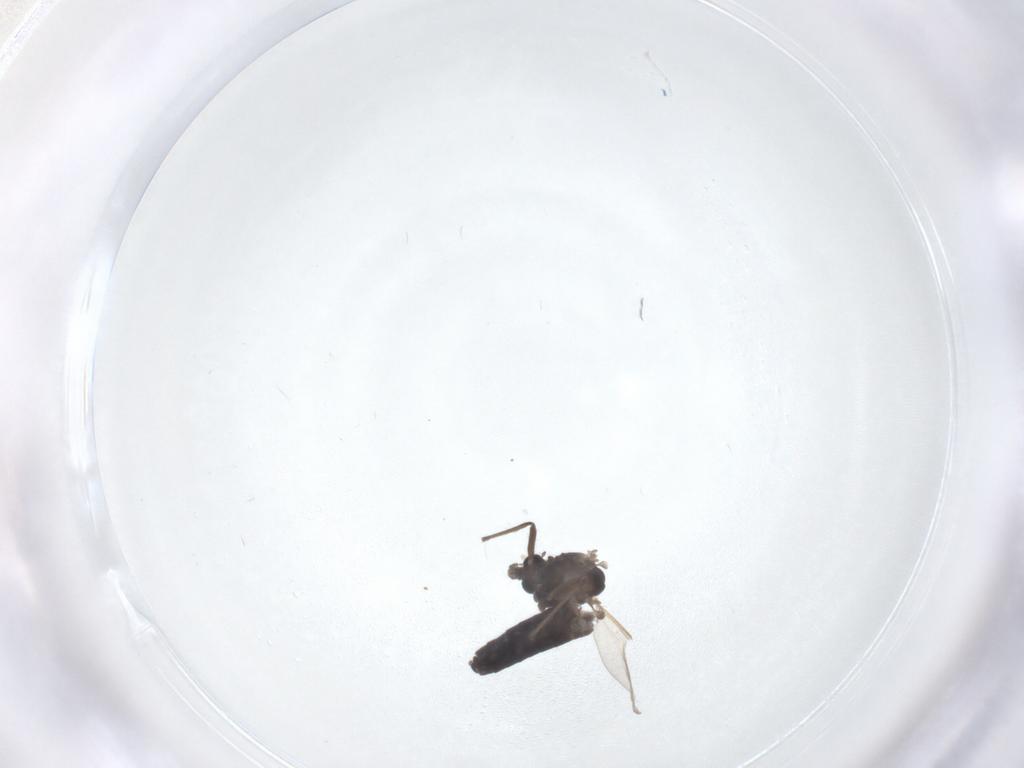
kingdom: Animalia
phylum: Arthropoda
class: Insecta
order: Diptera
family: Chironomidae
